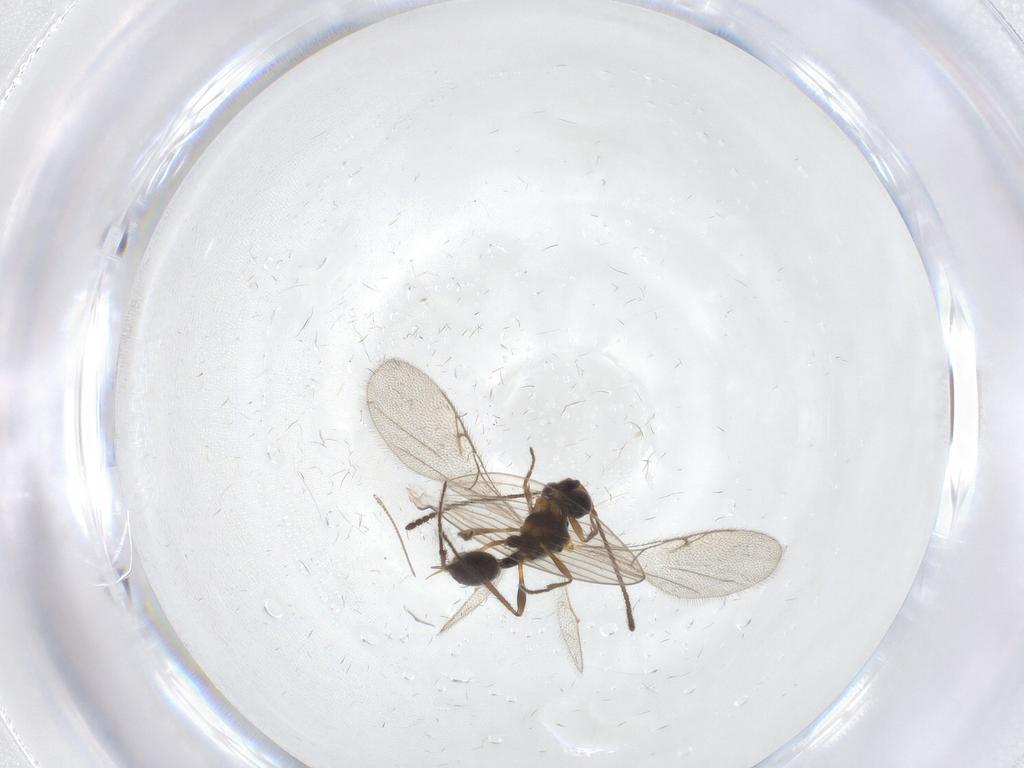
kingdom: Animalia
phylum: Arthropoda
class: Insecta
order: Hymenoptera
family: Diapriidae
